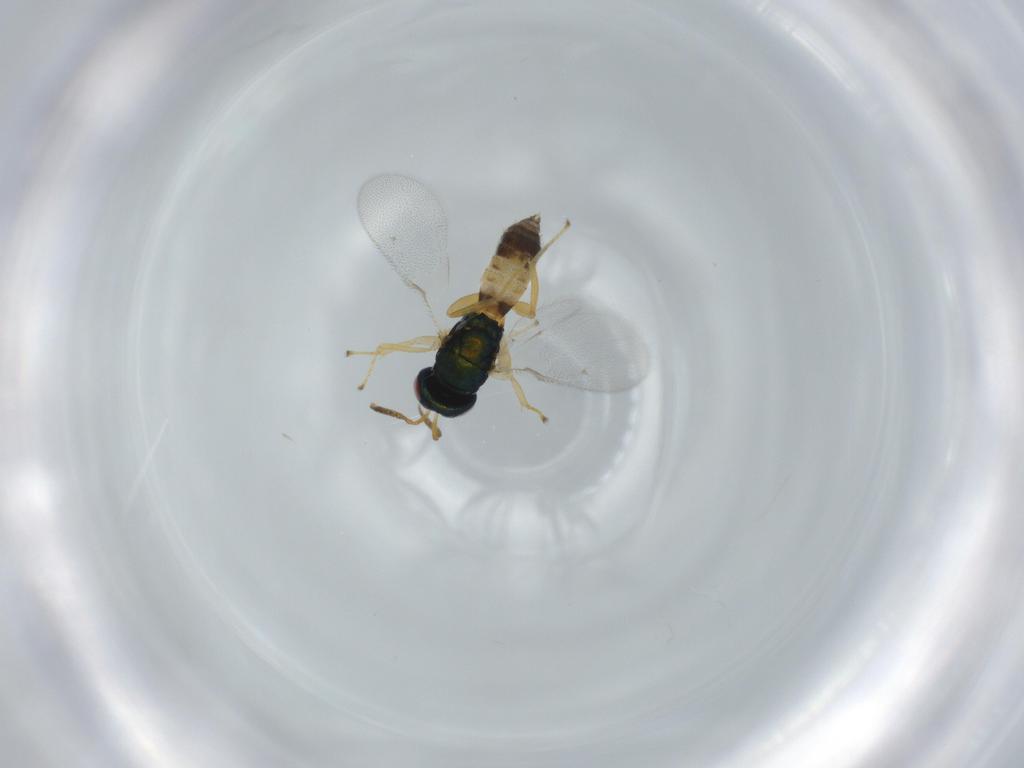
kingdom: Animalia
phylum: Arthropoda
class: Insecta
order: Hymenoptera
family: Pteromalidae
